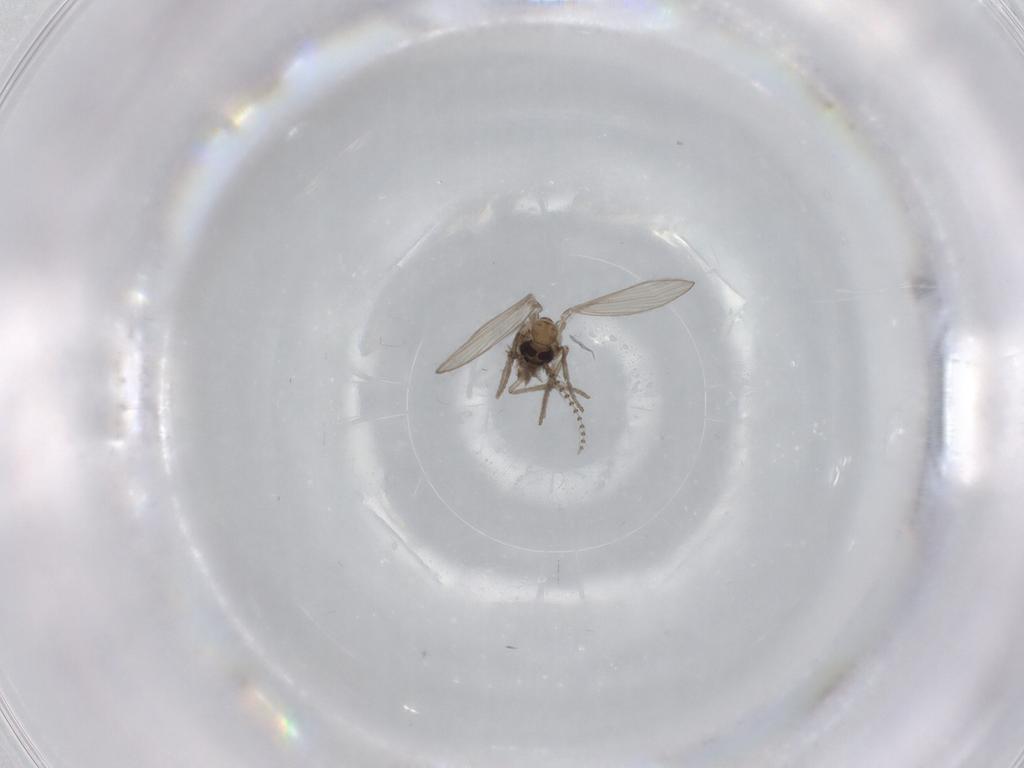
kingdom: Animalia
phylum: Arthropoda
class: Insecta
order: Diptera
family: Psychodidae
